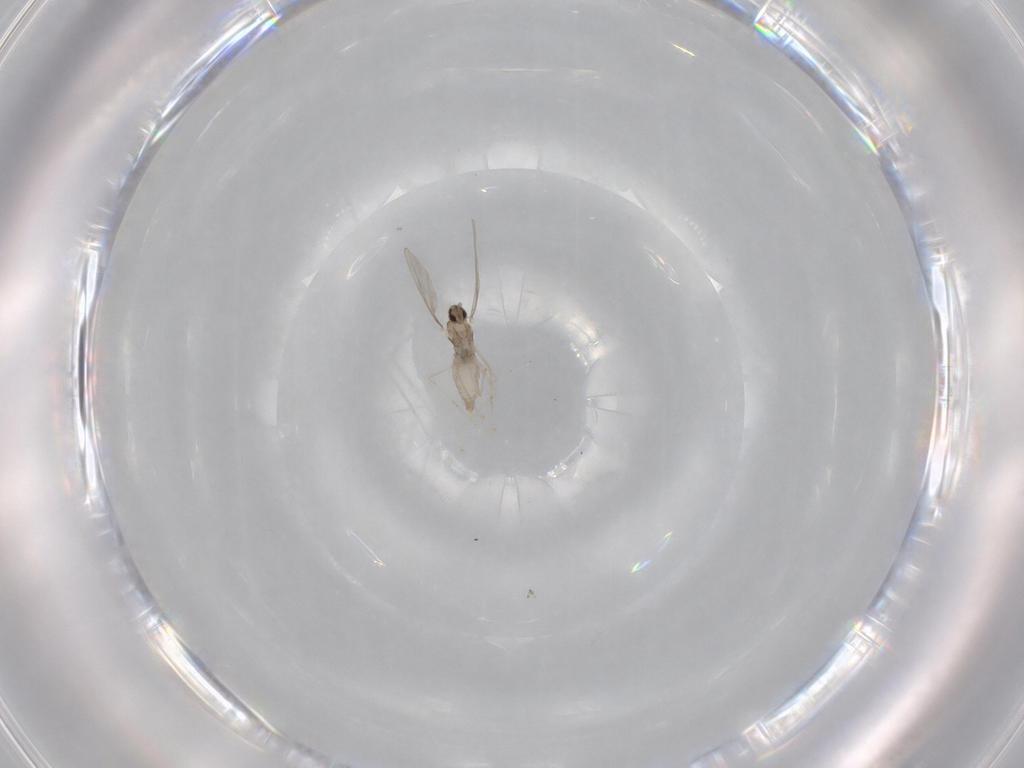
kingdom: Animalia
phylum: Arthropoda
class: Insecta
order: Diptera
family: Cecidomyiidae
